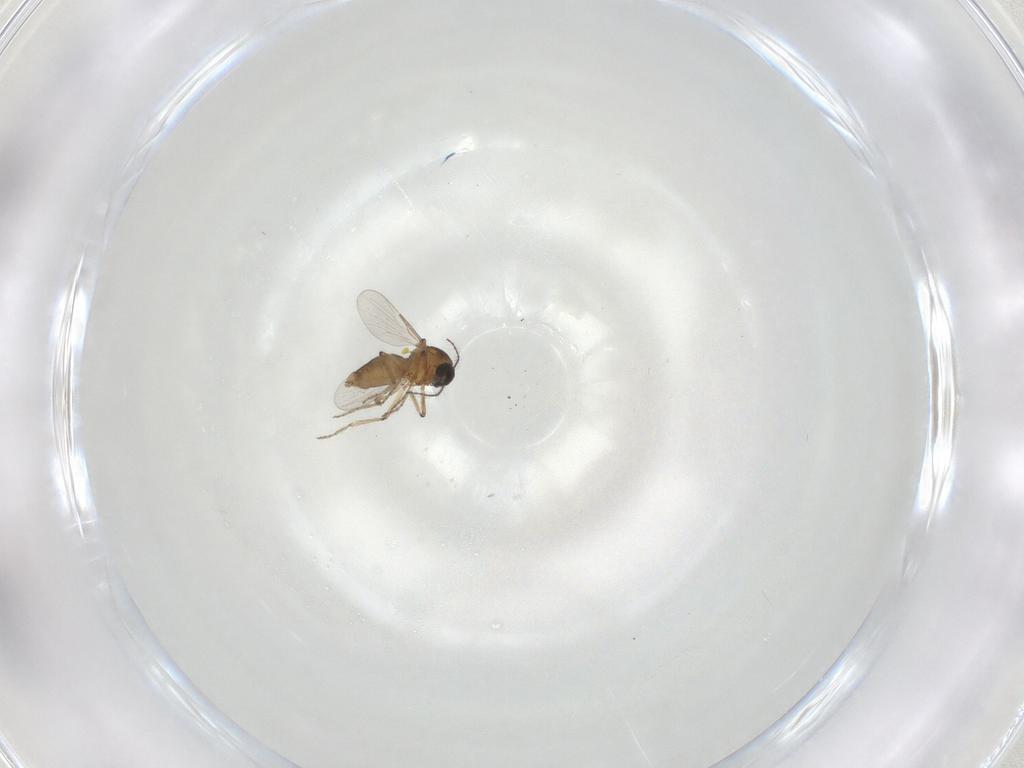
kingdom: Animalia
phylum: Arthropoda
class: Insecta
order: Diptera
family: Ceratopogonidae
